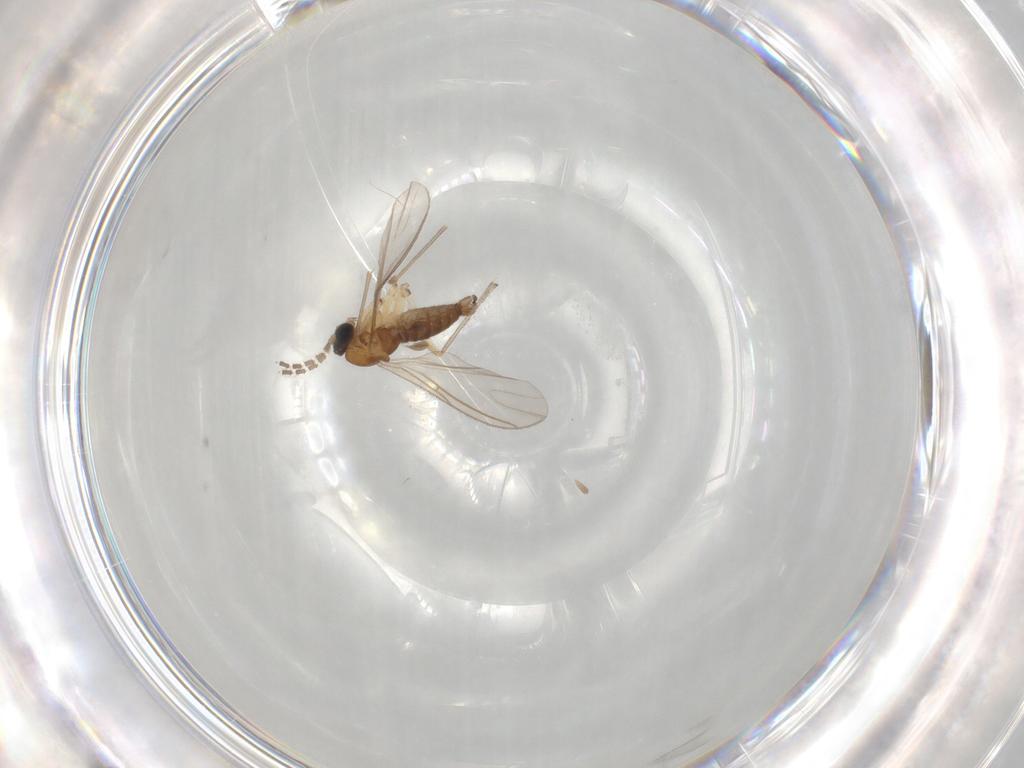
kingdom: Animalia
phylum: Arthropoda
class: Insecta
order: Diptera
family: Sciaridae
